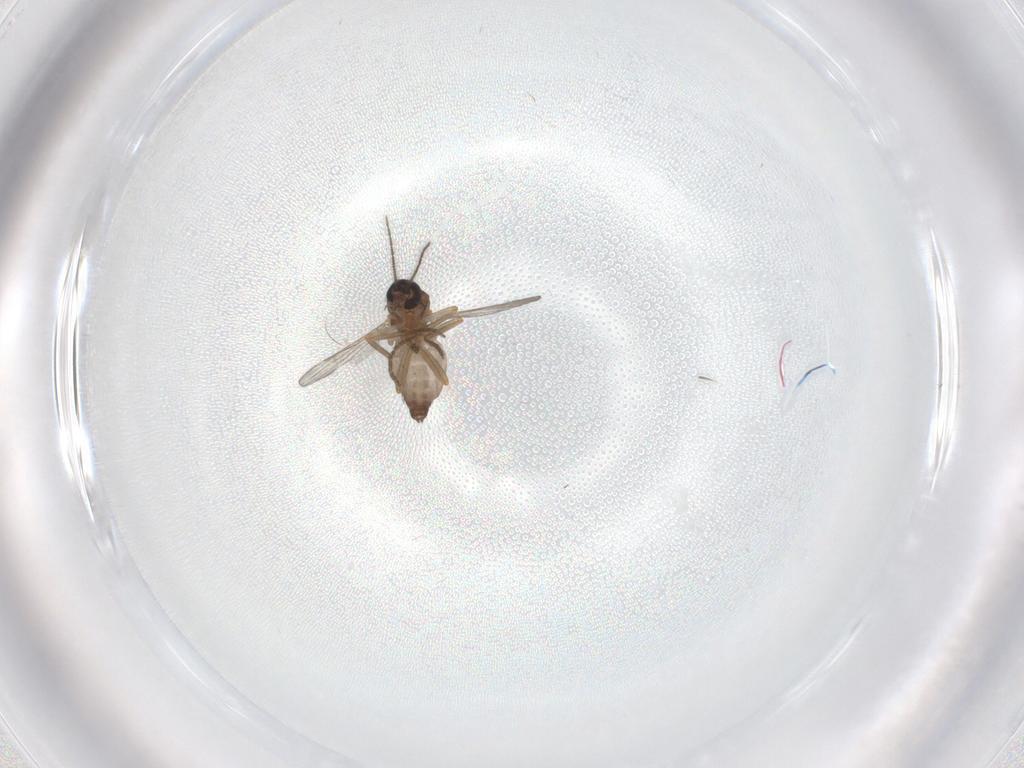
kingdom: Animalia
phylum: Arthropoda
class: Insecta
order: Diptera
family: Ceratopogonidae
